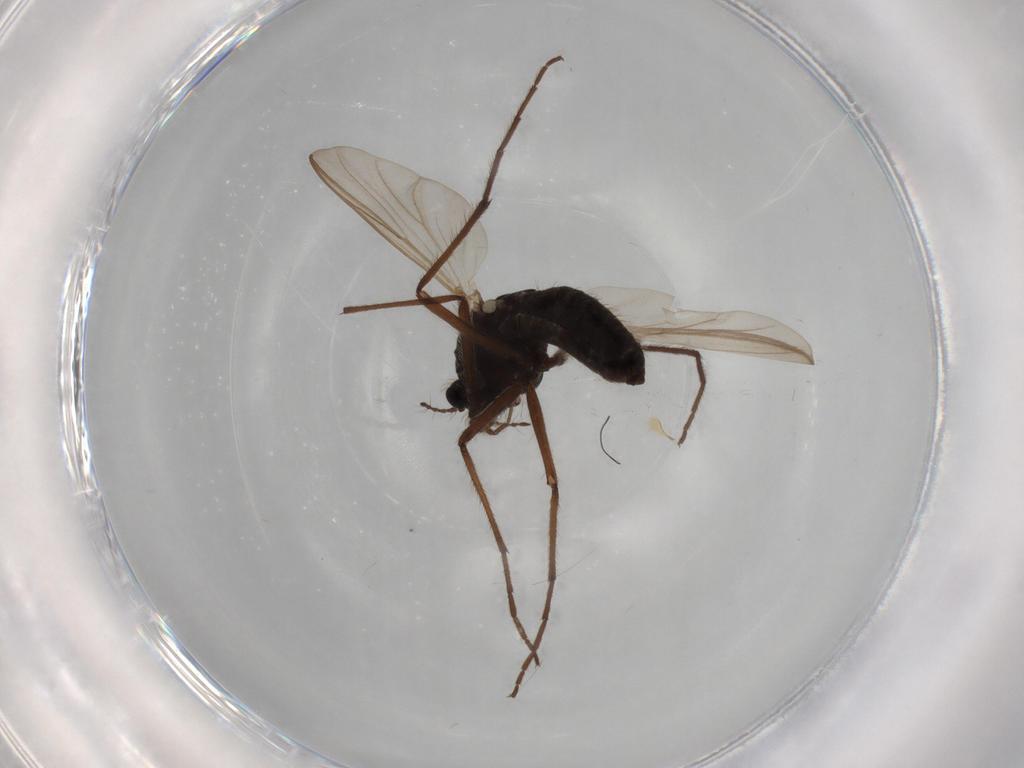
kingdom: Animalia
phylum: Arthropoda
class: Insecta
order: Diptera
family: Phoridae
